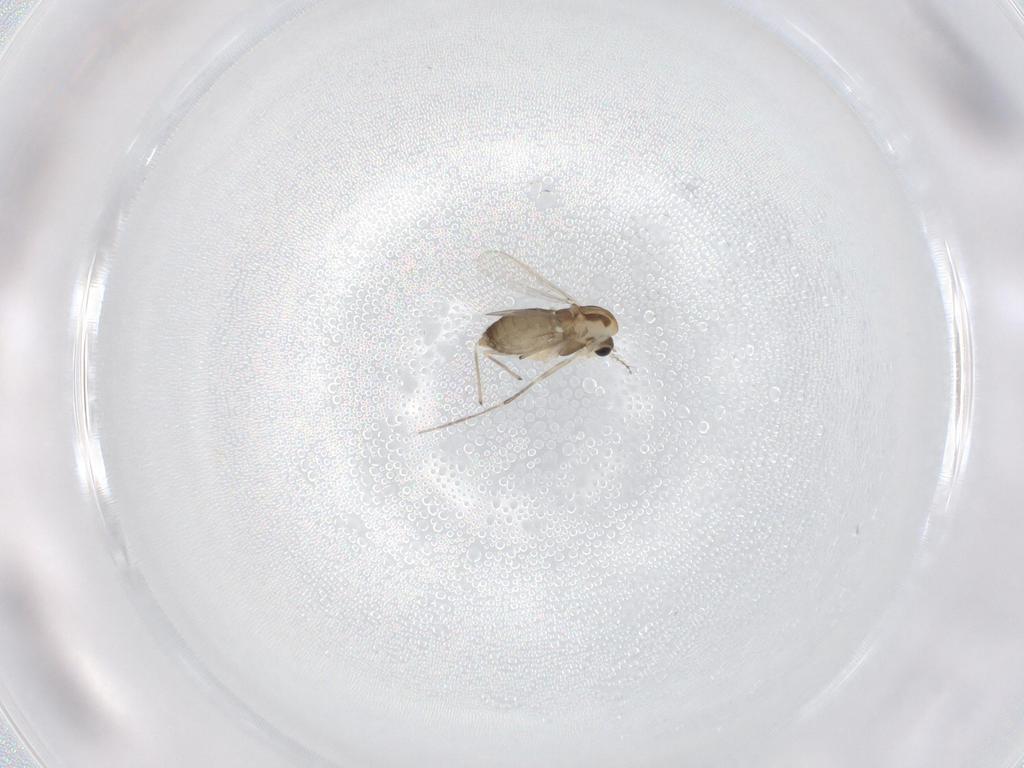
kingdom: Animalia
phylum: Arthropoda
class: Insecta
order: Diptera
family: Chironomidae
